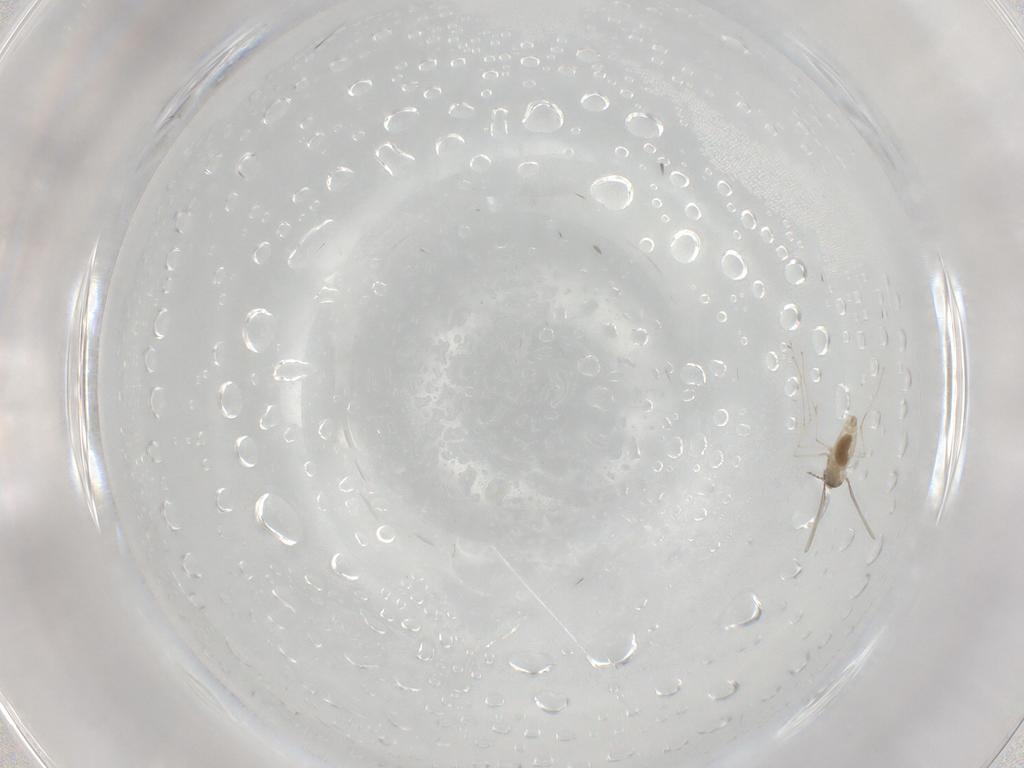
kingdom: Animalia
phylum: Arthropoda
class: Insecta
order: Diptera
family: Cecidomyiidae
